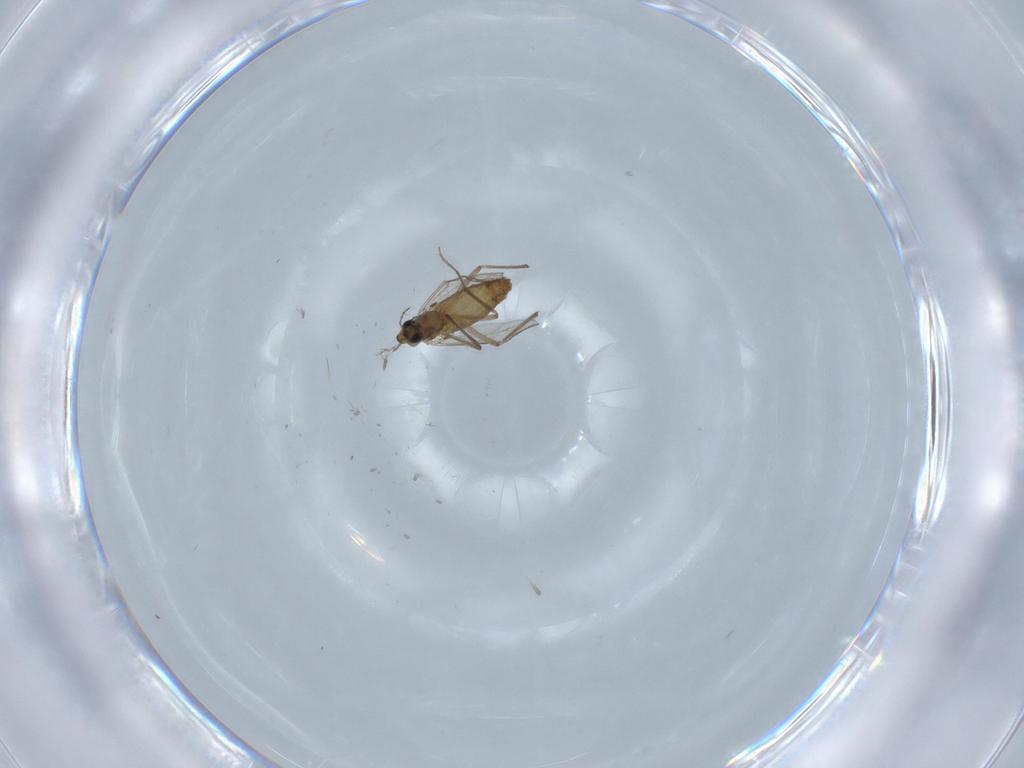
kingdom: Animalia
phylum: Arthropoda
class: Insecta
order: Diptera
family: Chironomidae
